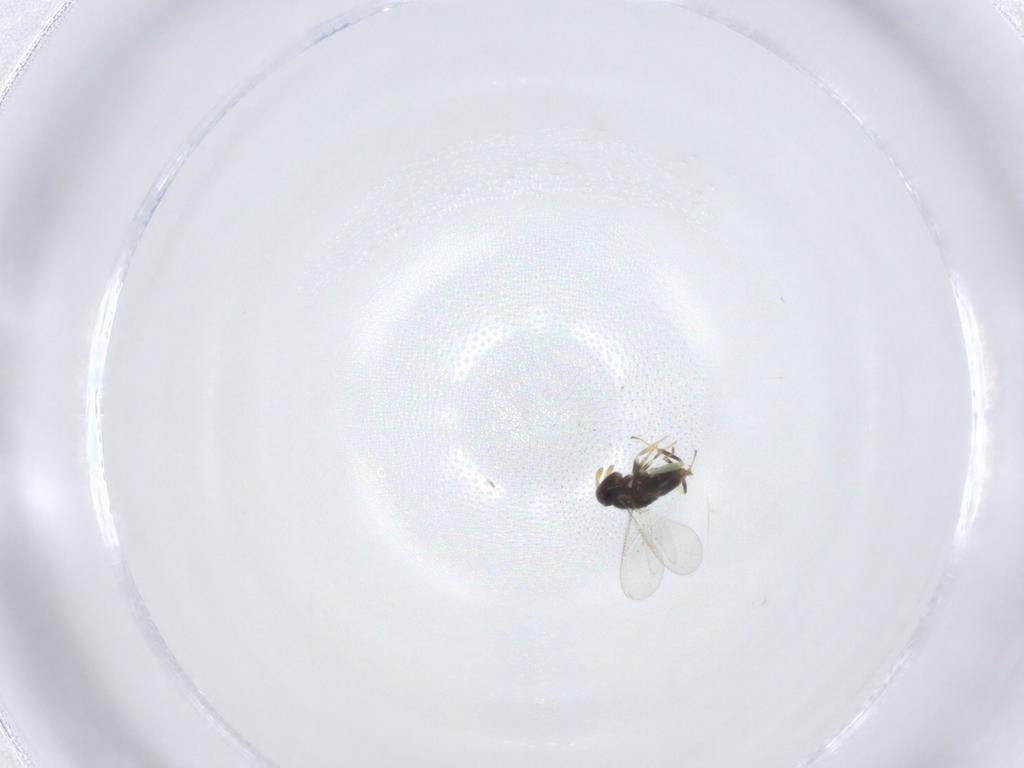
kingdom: Animalia
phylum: Arthropoda
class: Insecta
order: Hymenoptera
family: Aphelinidae
